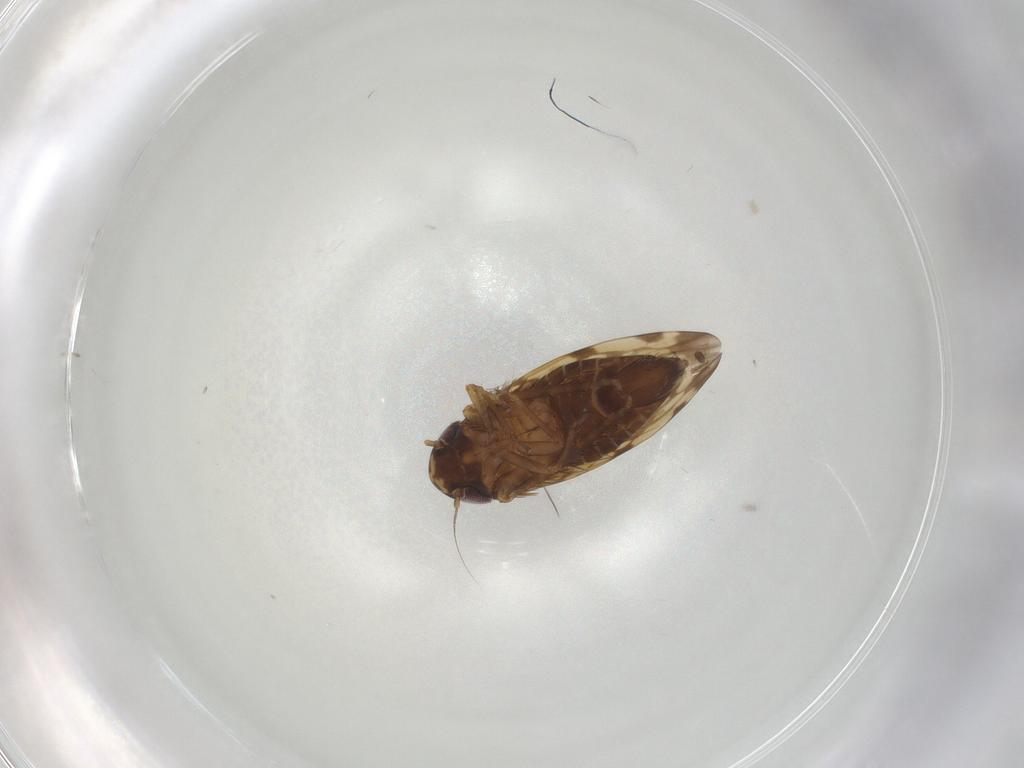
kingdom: Animalia
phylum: Arthropoda
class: Insecta
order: Hemiptera
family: Cicadellidae
